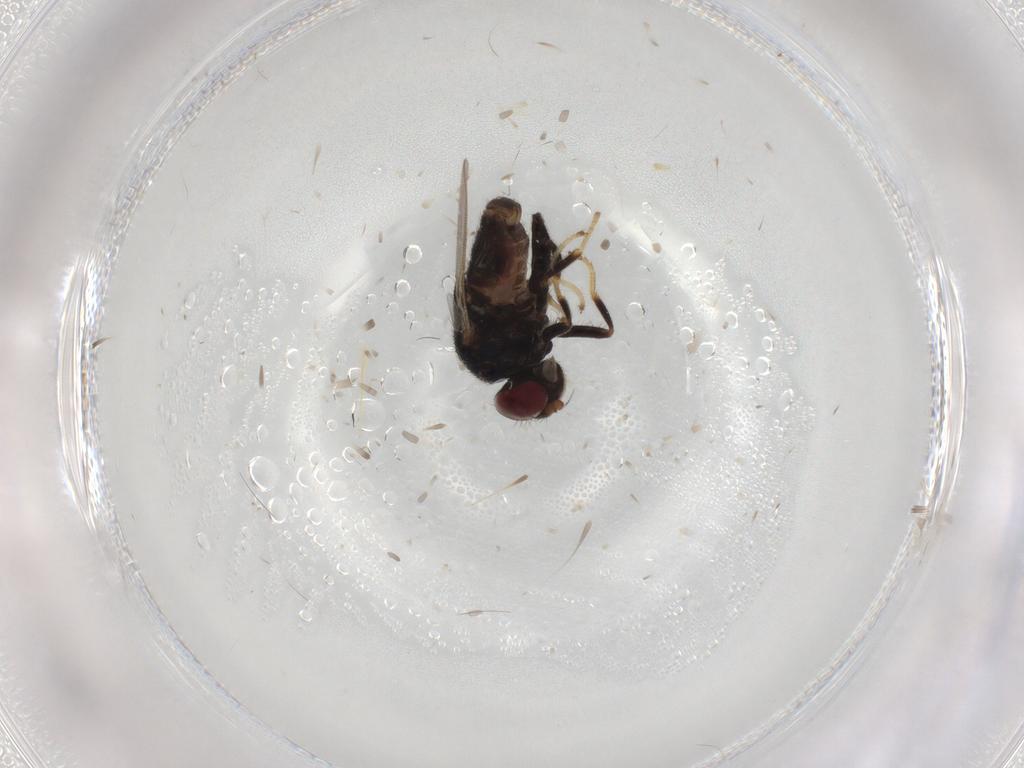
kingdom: Animalia
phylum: Arthropoda
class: Insecta
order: Diptera
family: Chloropidae
